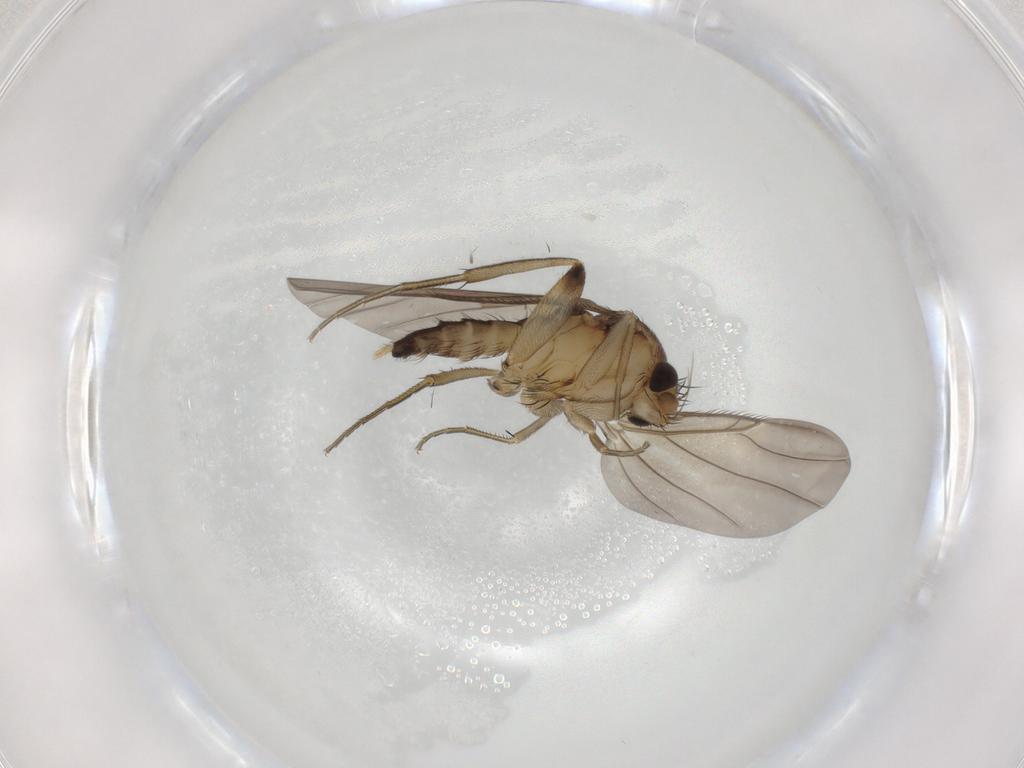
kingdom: Animalia
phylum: Arthropoda
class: Insecta
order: Diptera
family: Phoridae
